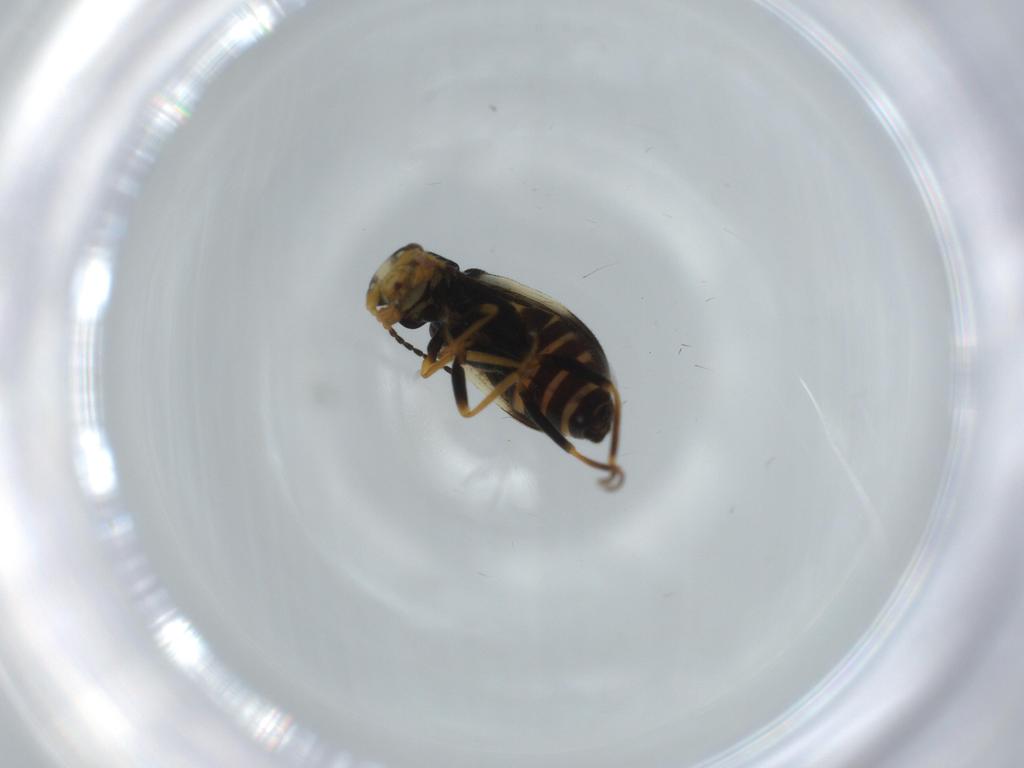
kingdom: Animalia
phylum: Arthropoda
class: Insecta
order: Coleoptera
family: Melyridae
